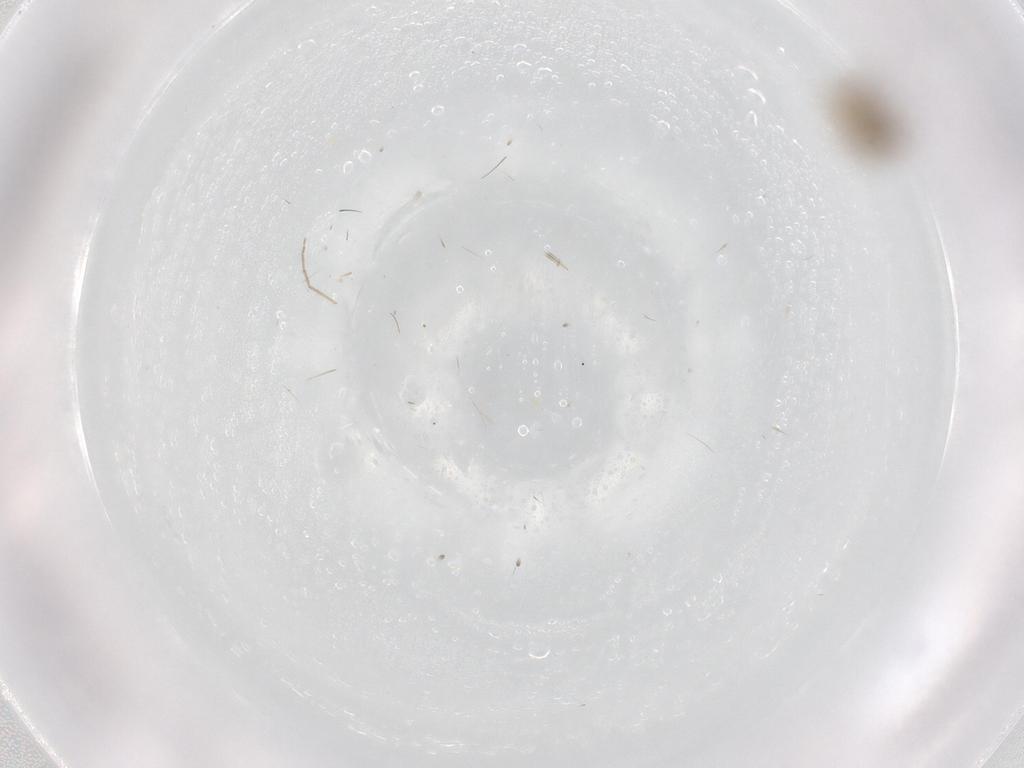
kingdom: Animalia
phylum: Arthropoda
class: Insecta
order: Diptera
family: Chironomidae
